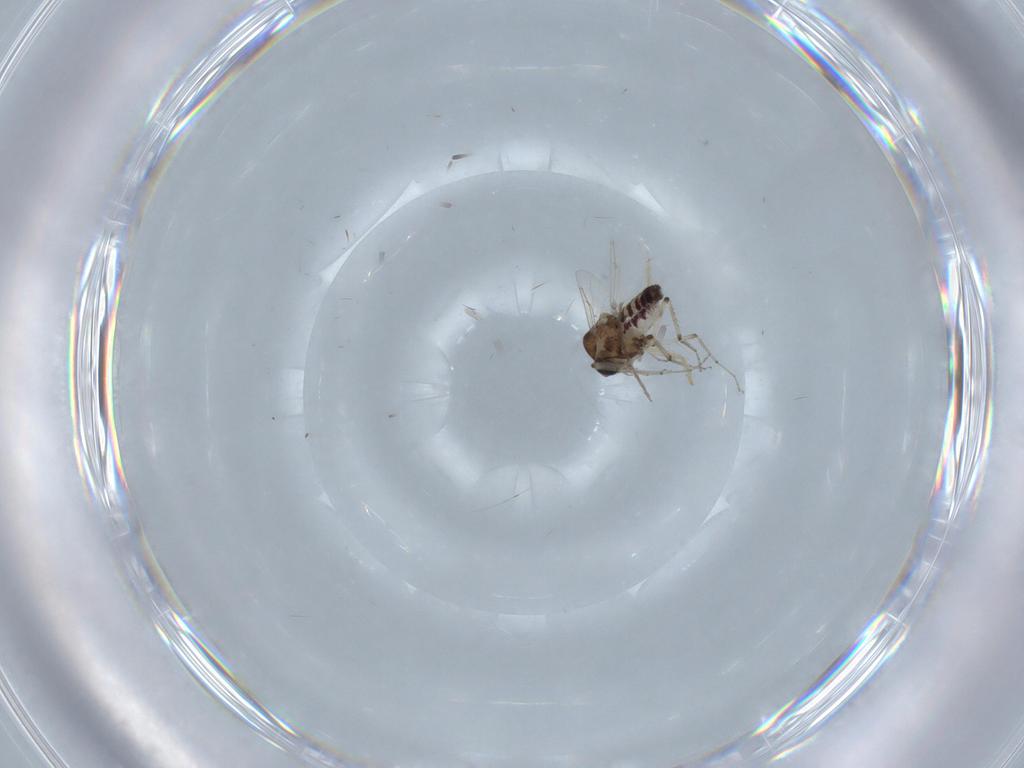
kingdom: Animalia
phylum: Arthropoda
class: Insecta
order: Diptera
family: Ceratopogonidae
